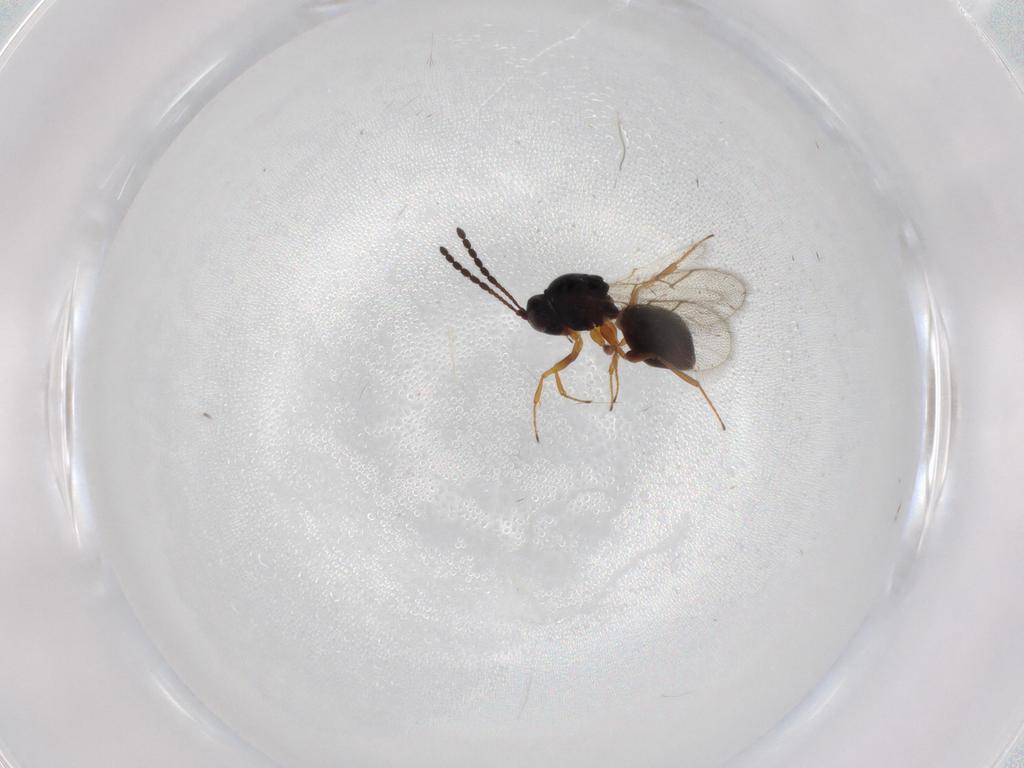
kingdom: Animalia
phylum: Arthropoda
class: Insecta
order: Hymenoptera
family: Figitidae
